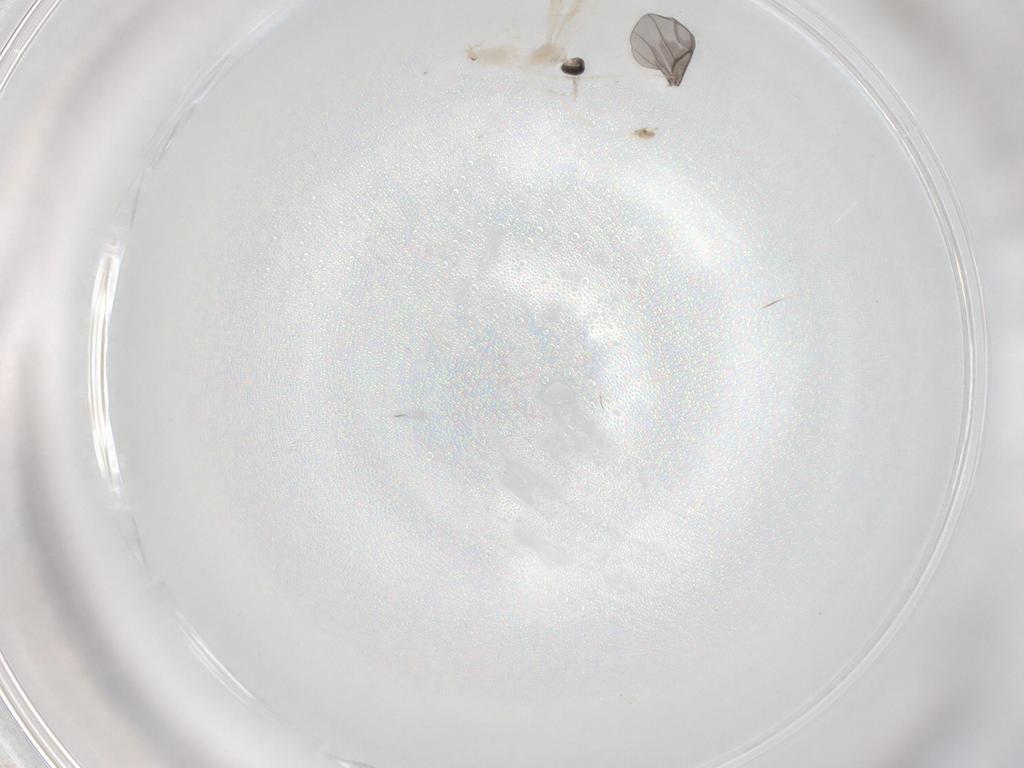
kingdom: Animalia
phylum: Arthropoda
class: Insecta
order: Diptera
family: Cecidomyiidae
